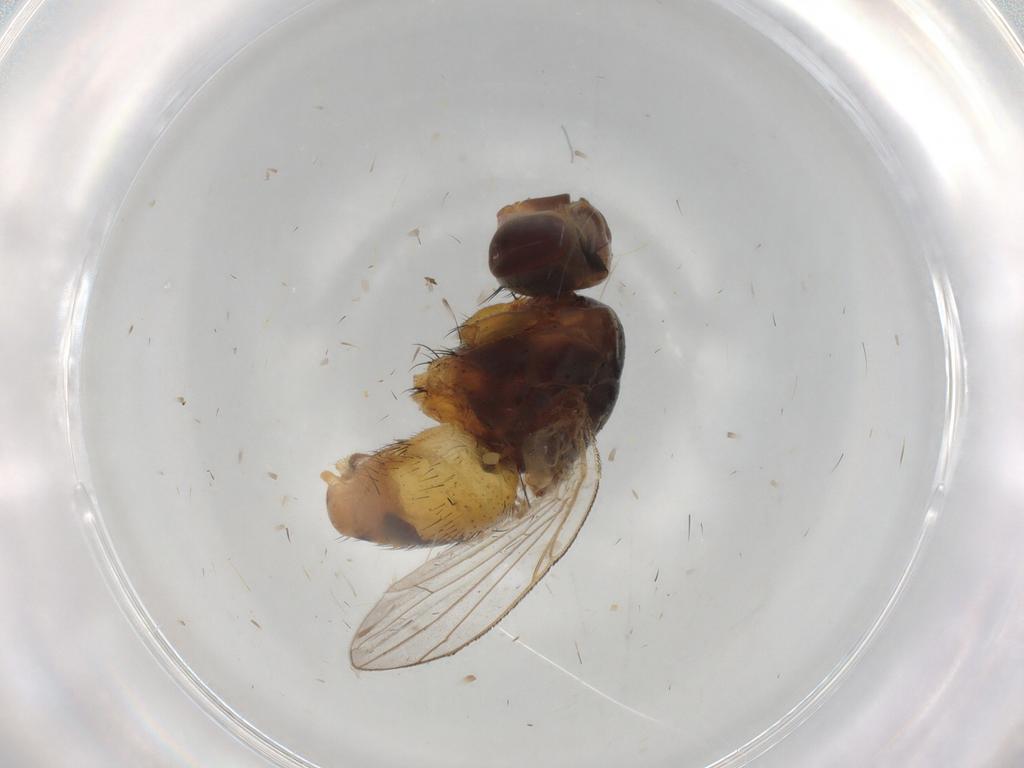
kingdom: Animalia
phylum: Arthropoda
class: Insecta
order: Diptera
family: Muscidae
